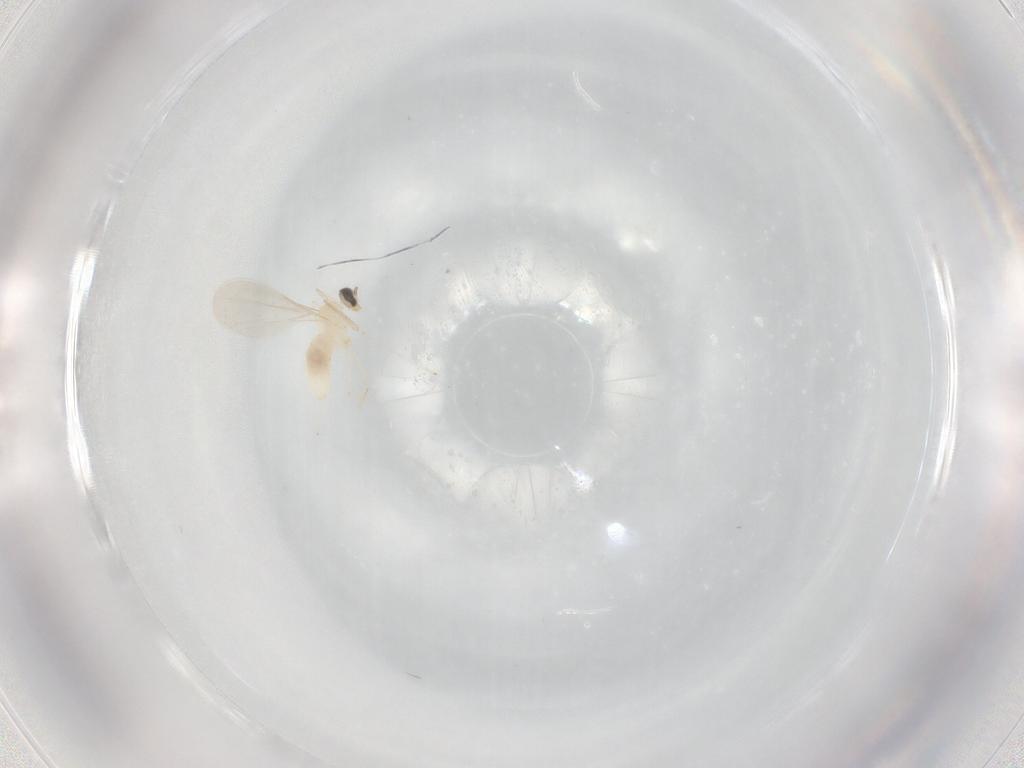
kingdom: Animalia
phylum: Arthropoda
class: Insecta
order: Diptera
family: Cecidomyiidae
